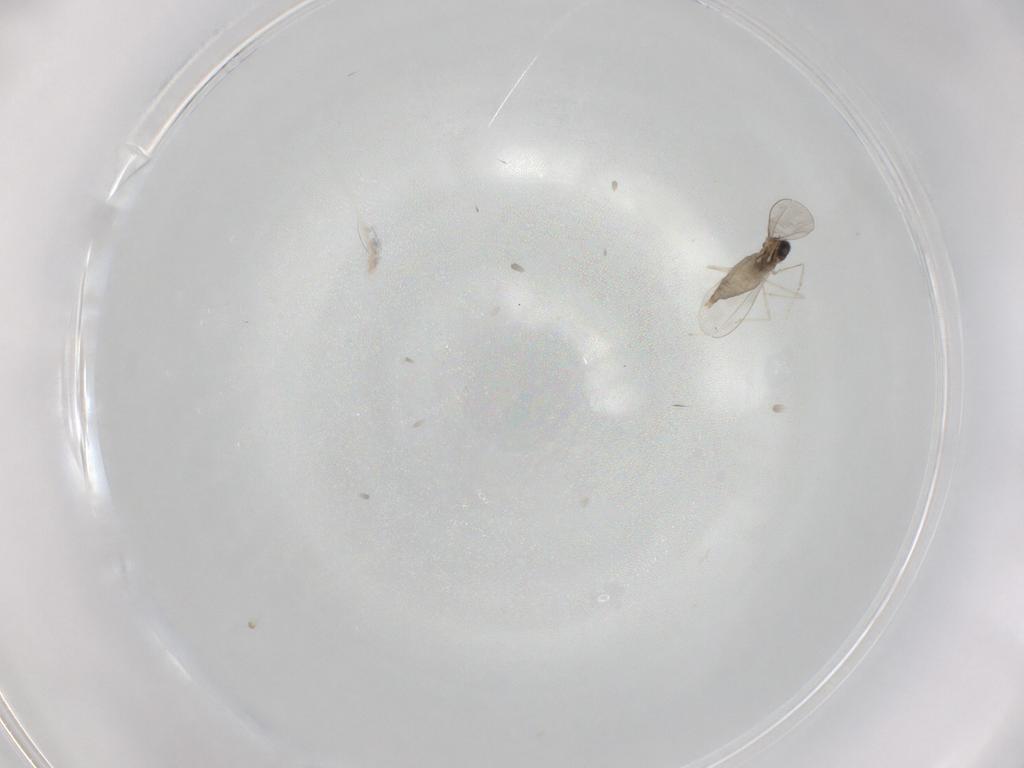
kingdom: Animalia
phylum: Arthropoda
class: Insecta
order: Diptera
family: Cecidomyiidae
